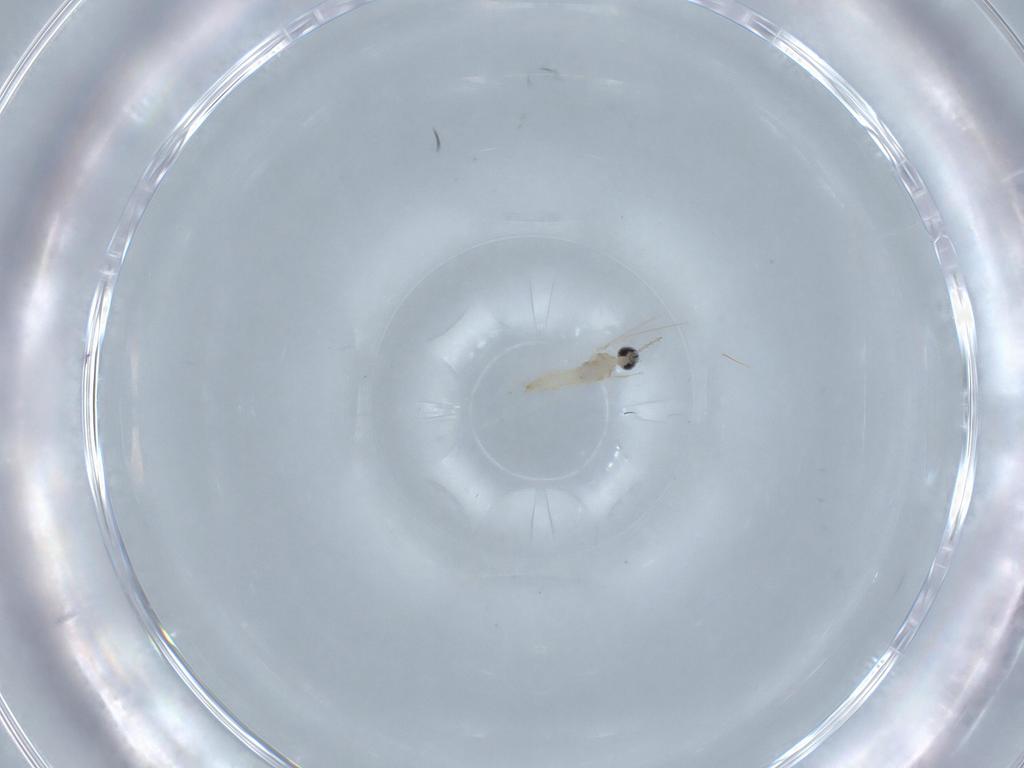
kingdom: Animalia
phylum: Arthropoda
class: Insecta
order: Diptera
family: Cecidomyiidae
